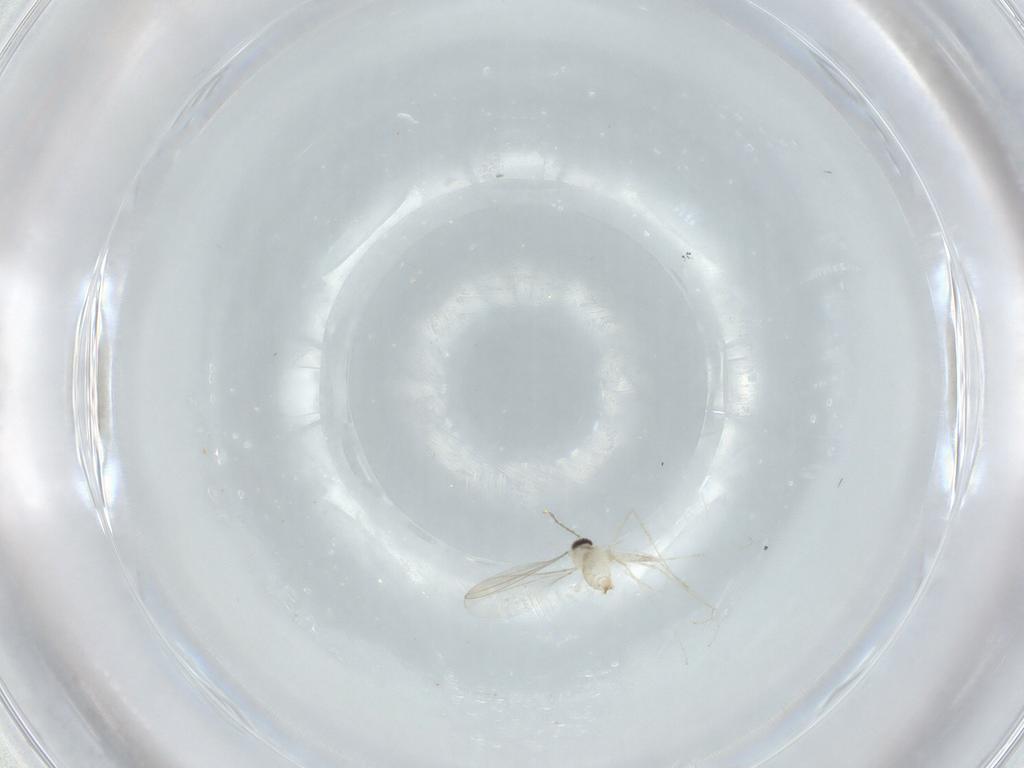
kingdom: Animalia
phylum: Arthropoda
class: Insecta
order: Diptera
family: Cecidomyiidae
